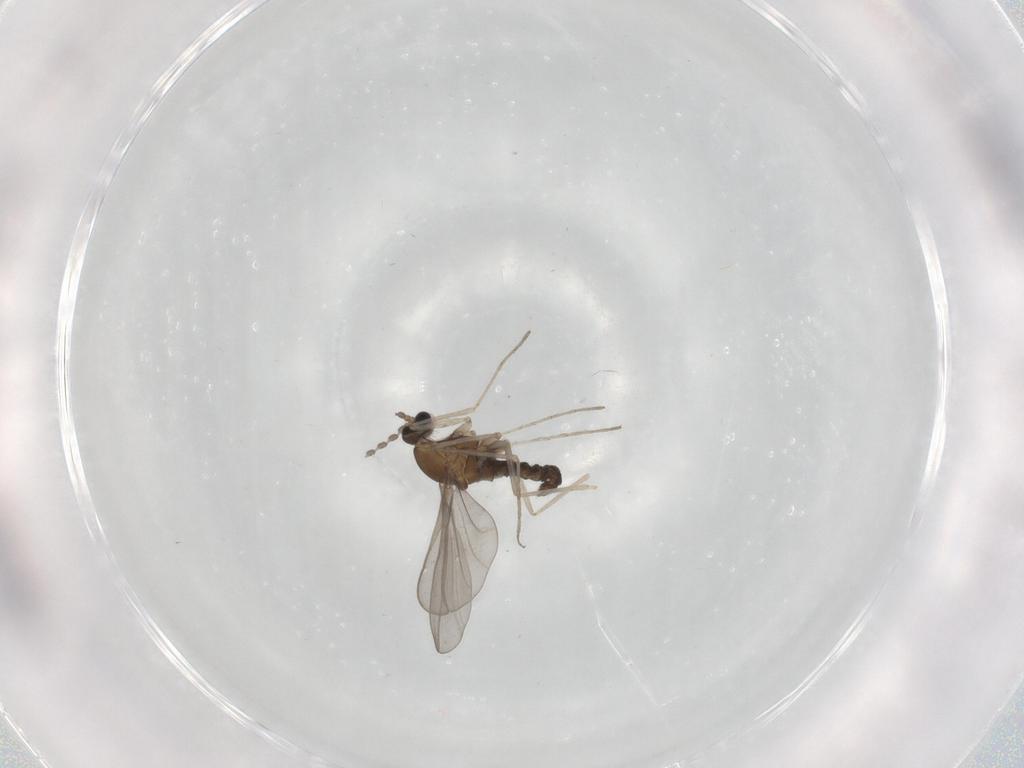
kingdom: Animalia
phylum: Arthropoda
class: Insecta
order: Diptera
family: Cecidomyiidae
